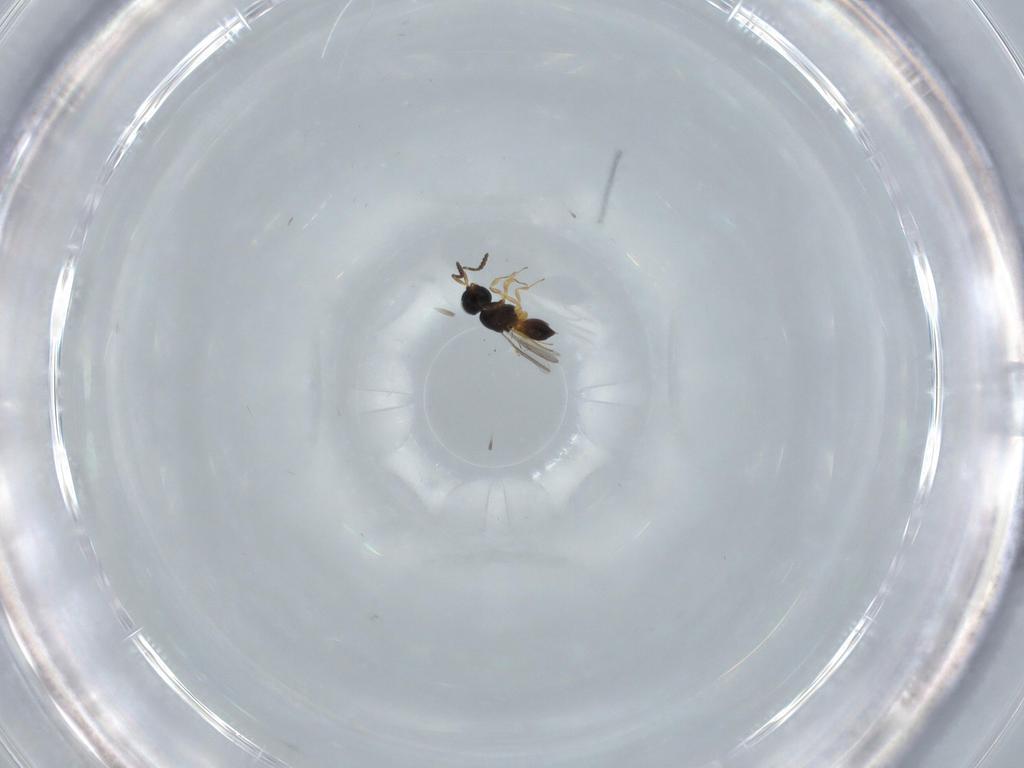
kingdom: Animalia
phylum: Arthropoda
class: Insecta
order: Hymenoptera
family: Scelionidae
